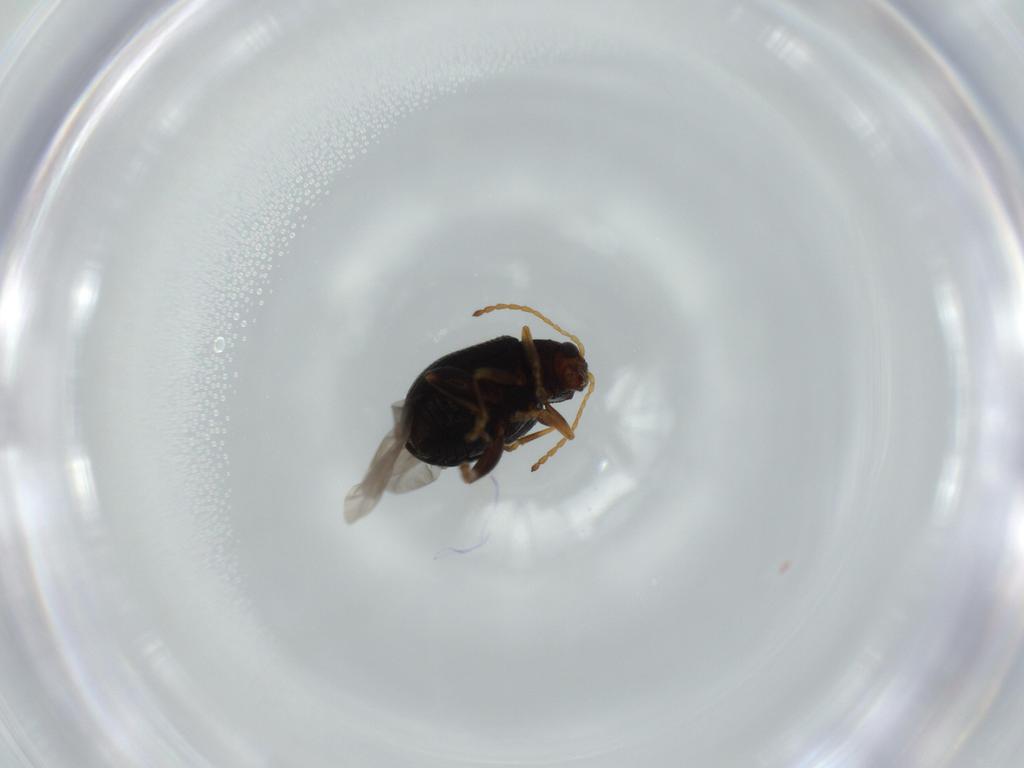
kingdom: Animalia
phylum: Arthropoda
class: Insecta
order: Coleoptera
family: Chrysomelidae
